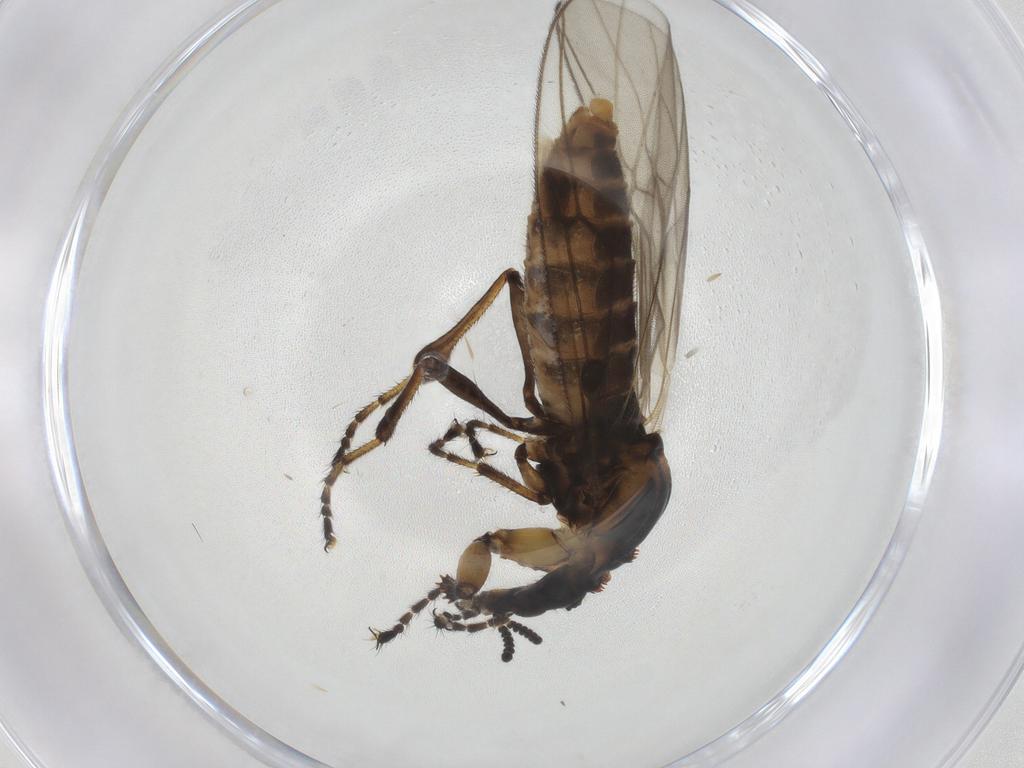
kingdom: Animalia
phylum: Arthropoda
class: Insecta
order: Diptera
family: Bibionidae
